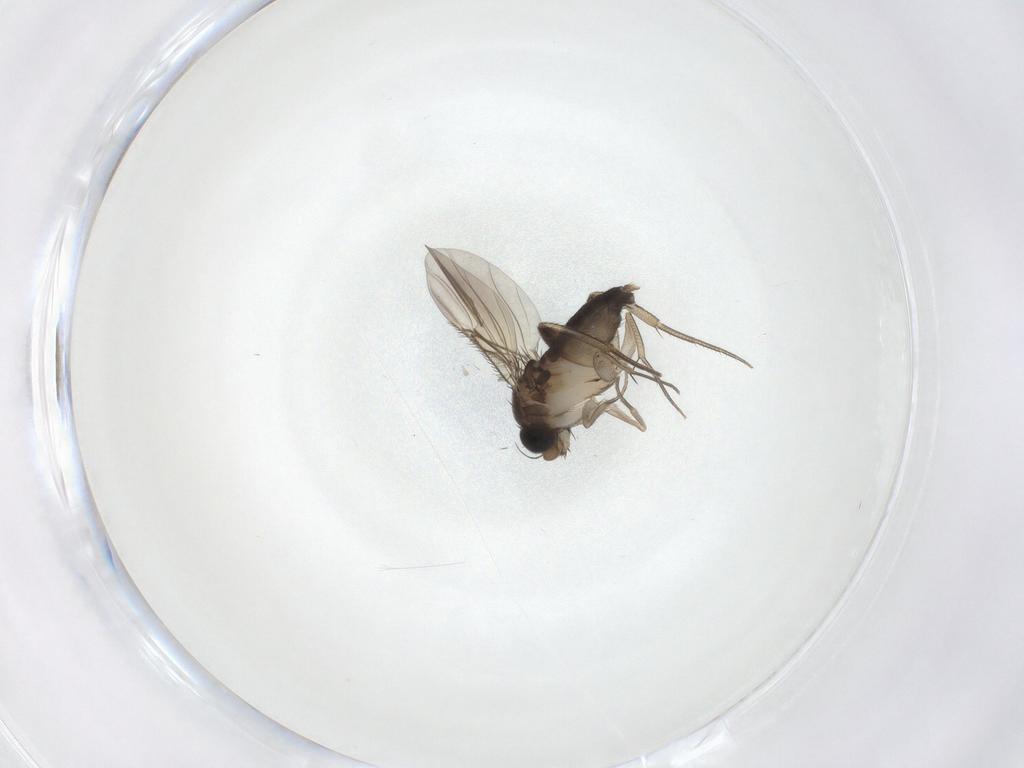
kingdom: Animalia
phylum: Arthropoda
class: Insecta
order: Diptera
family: Phoridae
